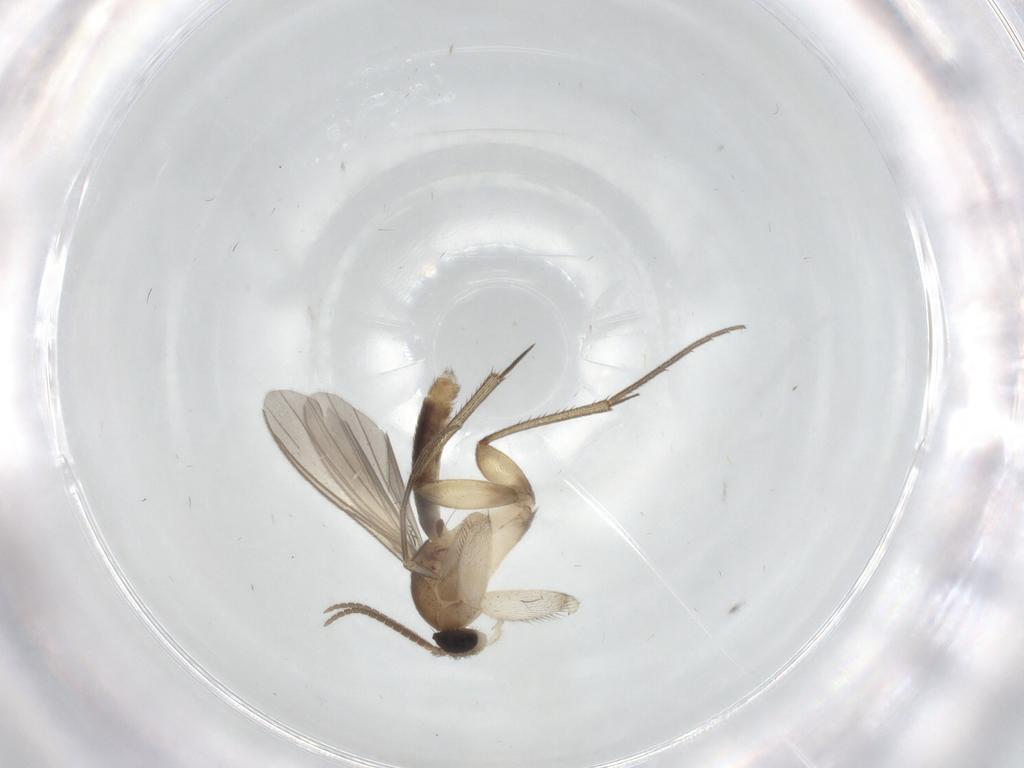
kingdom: Animalia
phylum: Arthropoda
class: Insecta
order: Diptera
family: Mycetophilidae
